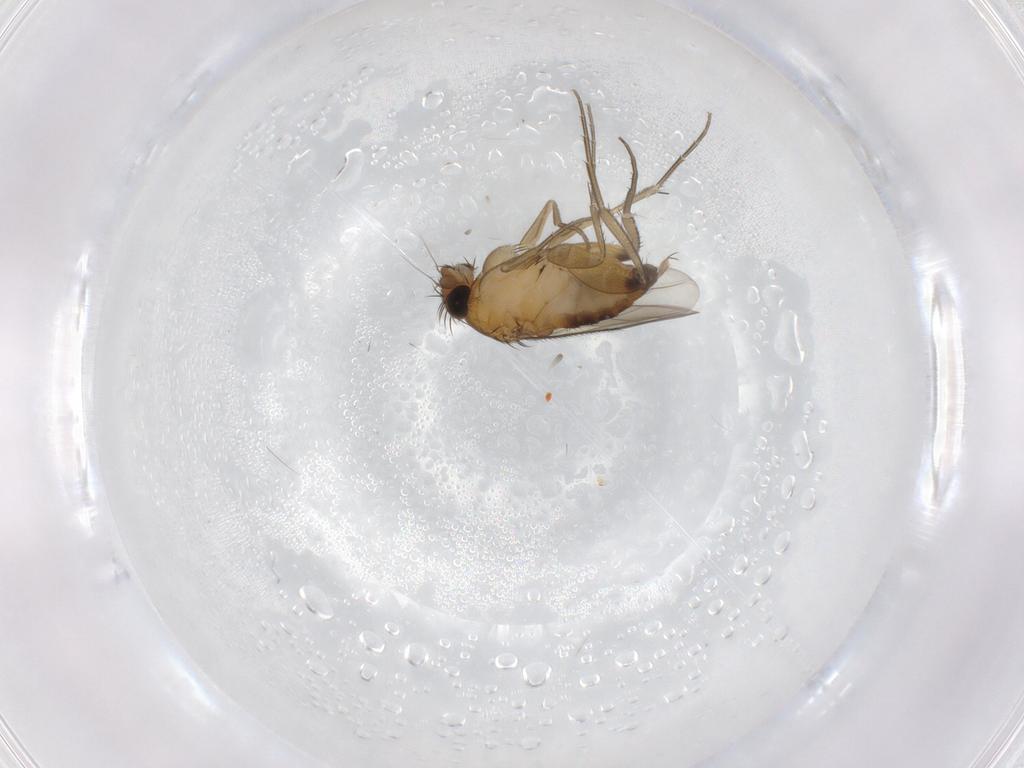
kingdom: Animalia
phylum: Arthropoda
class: Insecta
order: Diptera
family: Phoridae
